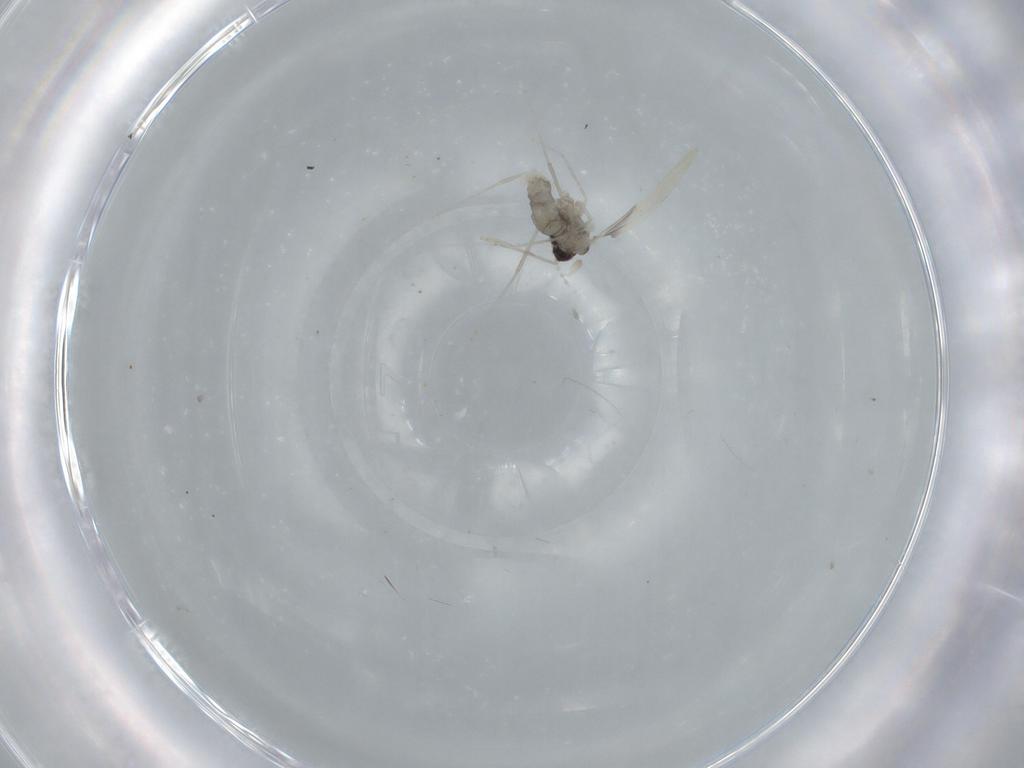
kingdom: Animalia
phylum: Arthropoda
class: Insecta
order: Diptera
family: Cecidomyiidae
